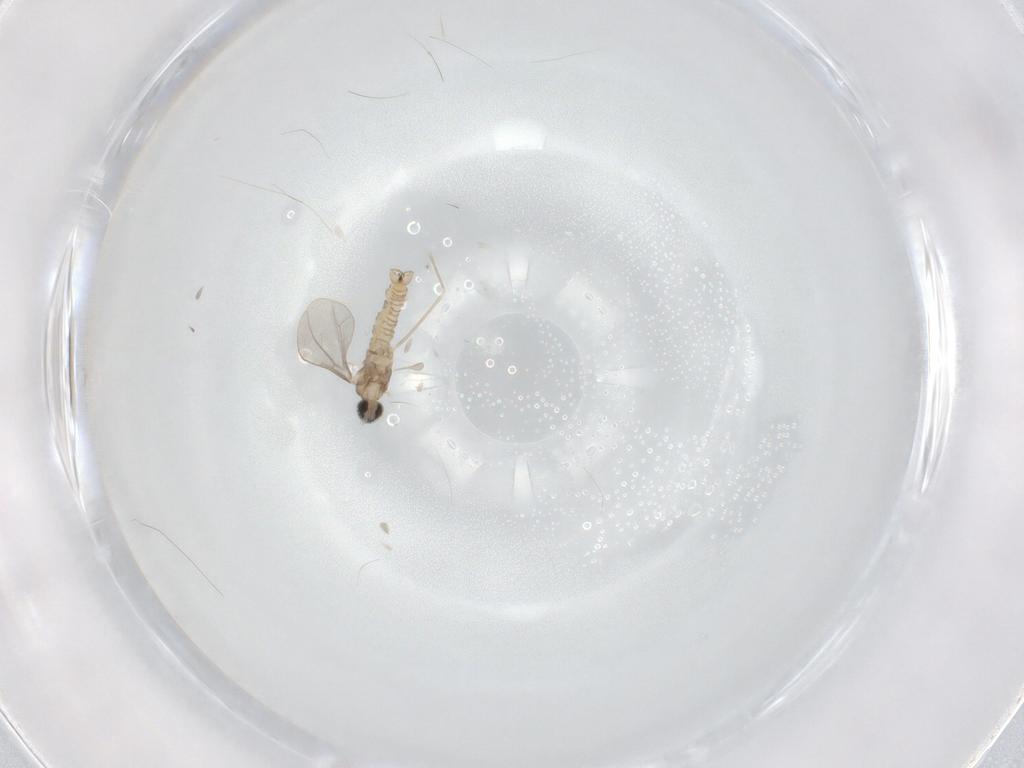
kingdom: Animalia
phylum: Arthropoda
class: Insecta
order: Diptera
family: Cecidomyiidae
